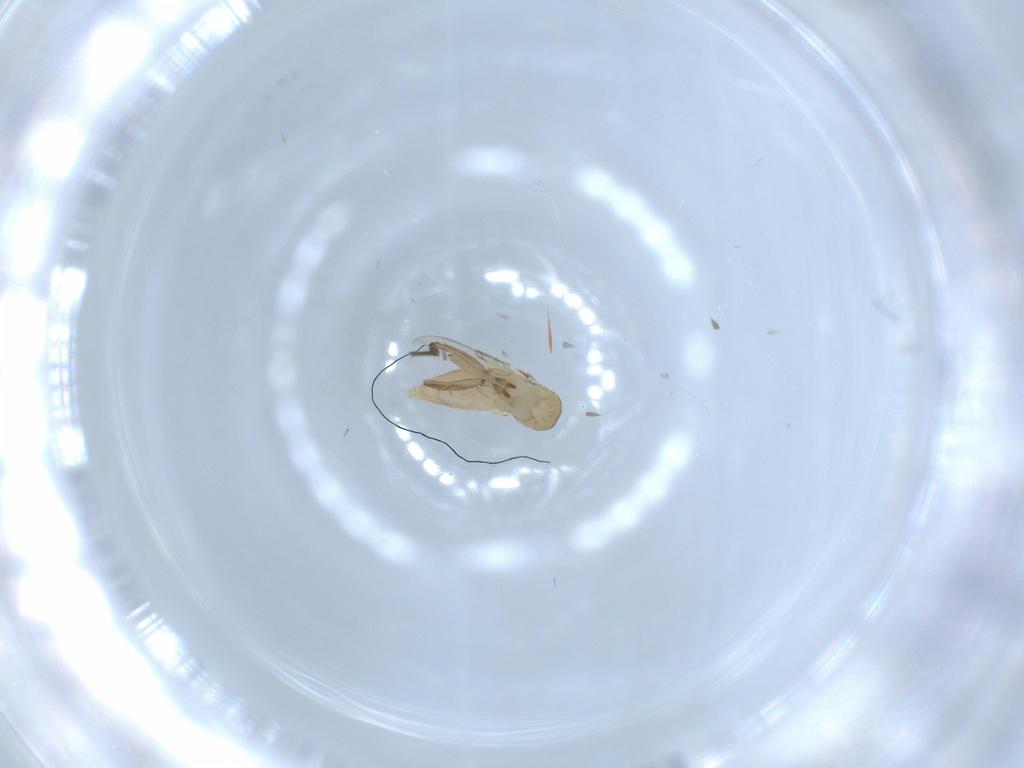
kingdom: Animalia
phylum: Arthropoda
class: Insecta
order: Diptera
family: Phoridae
